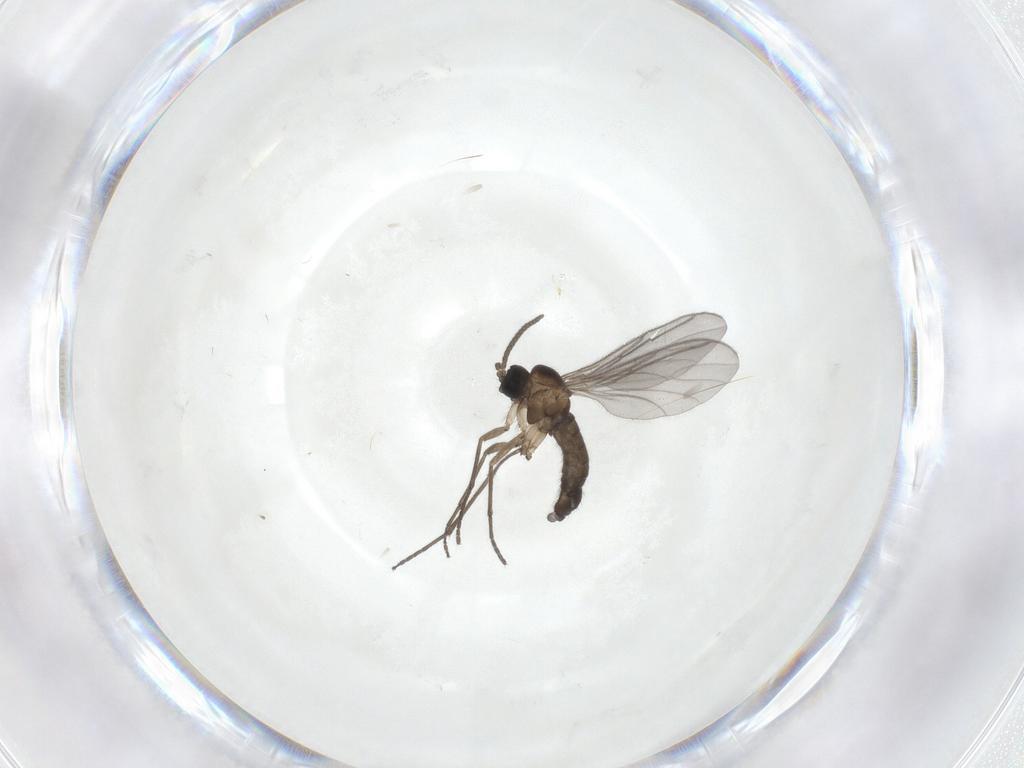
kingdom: Animalia
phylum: Arthropoda
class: Insecta
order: Diptera
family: Sciaridae
